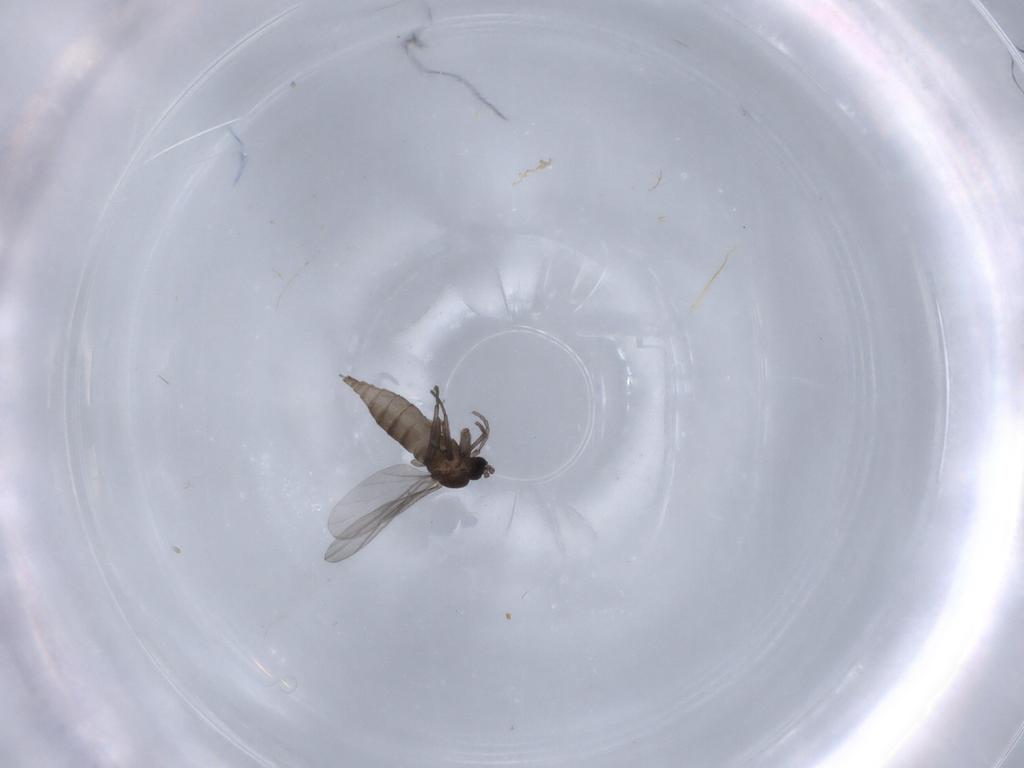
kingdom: Animalia
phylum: Arthropoda
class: Insecta
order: Diptera
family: Sciaridae
